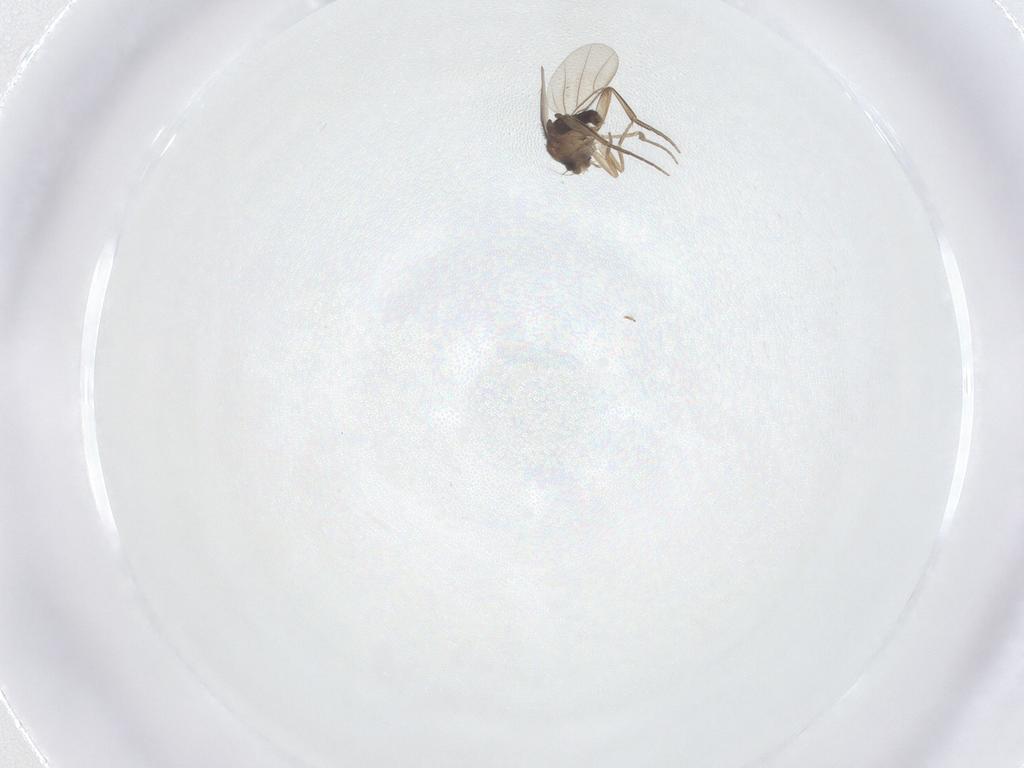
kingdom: Animalia
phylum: Arthropoda
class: Insecta
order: Diptera
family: Phoridae
